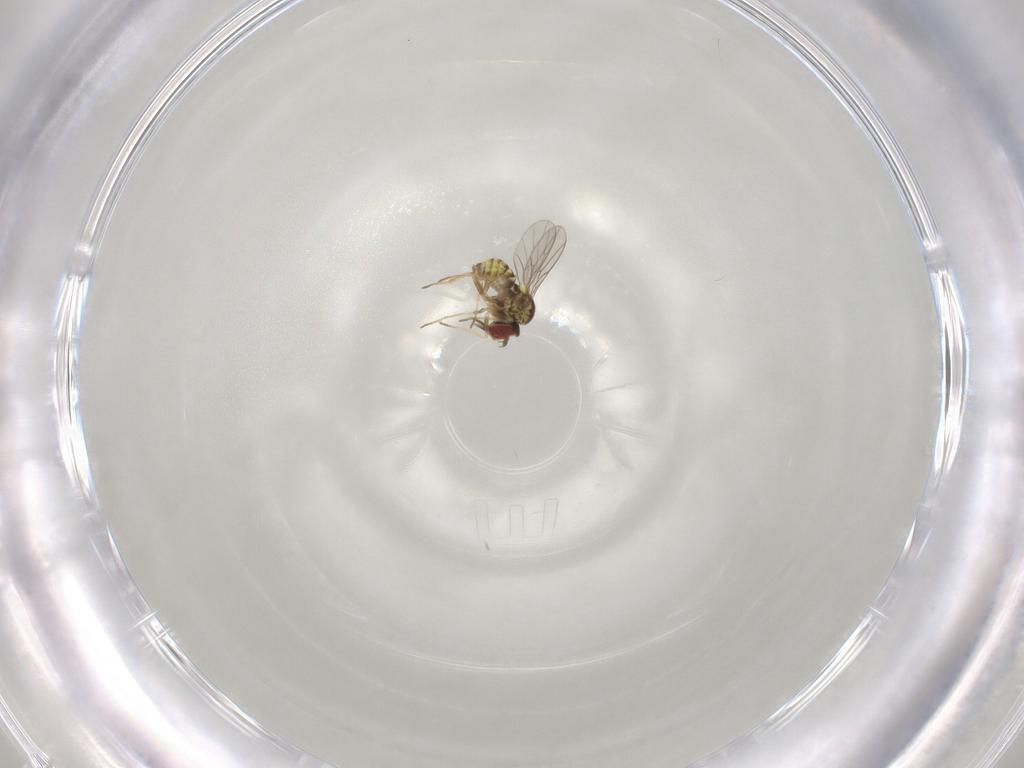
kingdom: Animalia
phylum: Arthropoda
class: Insecta
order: Diptera
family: Mythicomyiidae
